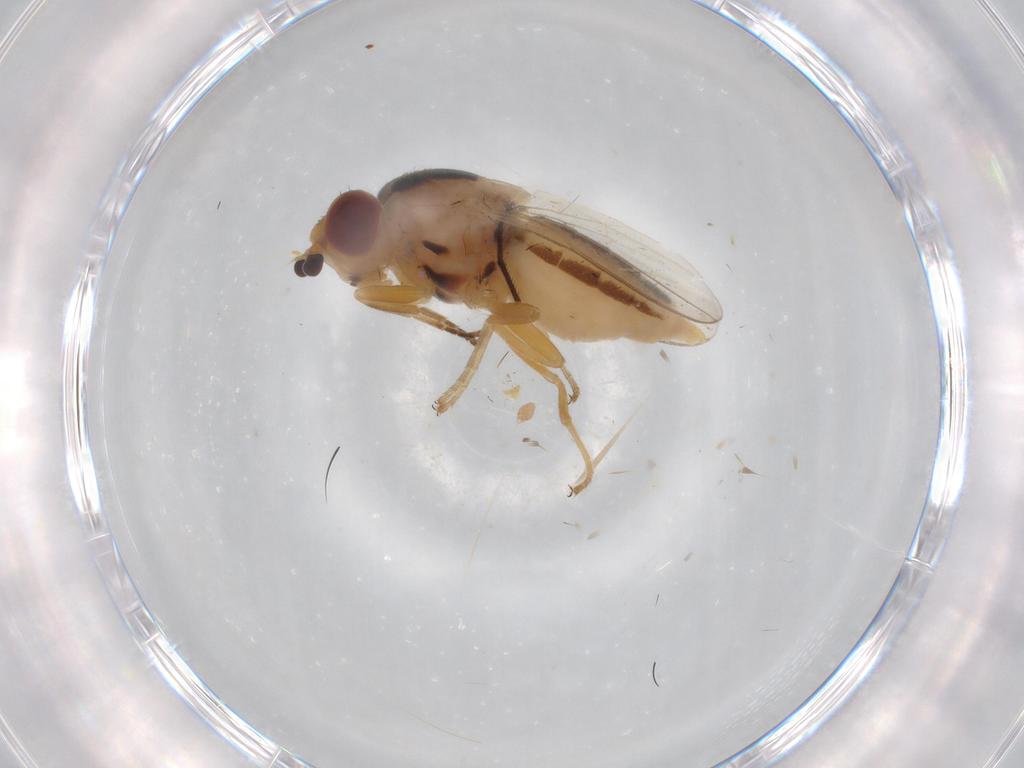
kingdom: Animalia
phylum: Arthropoda
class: Insecta
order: Diptera
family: Chloropidae
